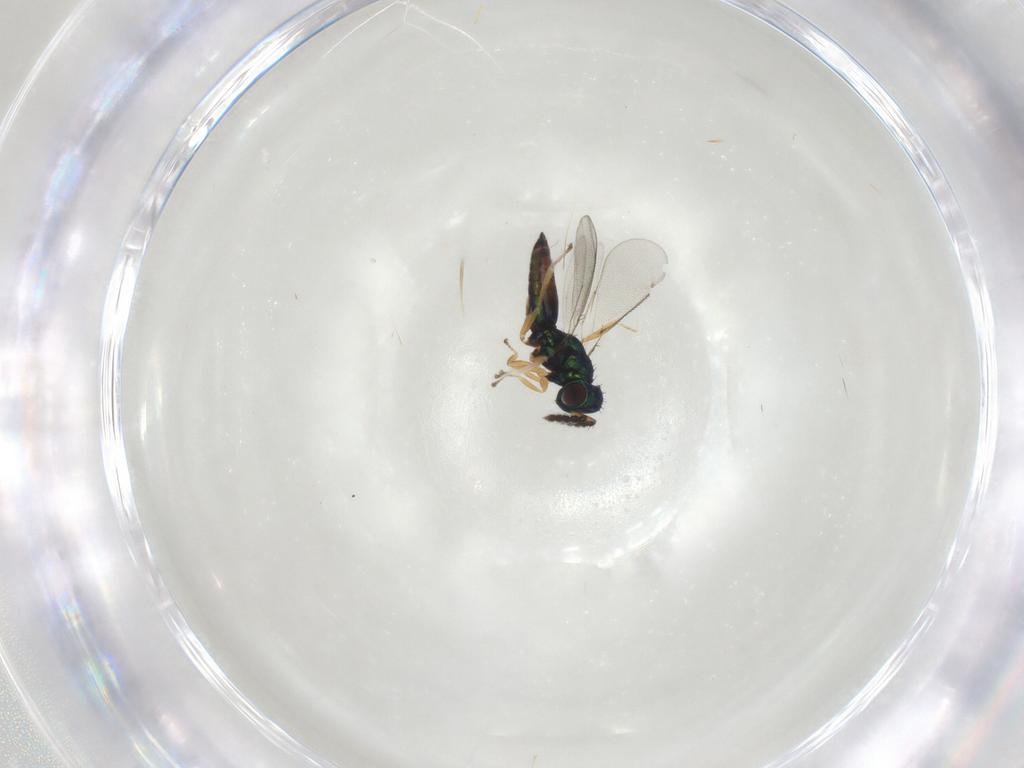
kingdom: Animalia
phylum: Arthropoda
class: Insecta
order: Hymenoptera
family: Eulophidae
